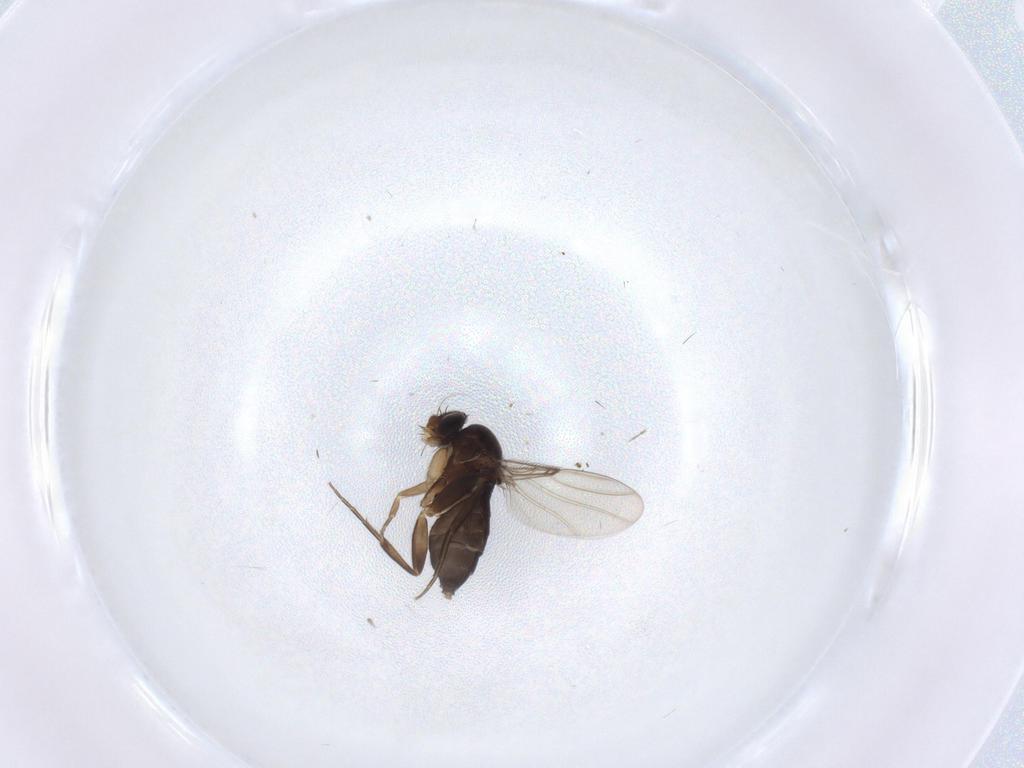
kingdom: Animalia
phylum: Arthropoda
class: Insecta
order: Diptera
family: Phoridae
